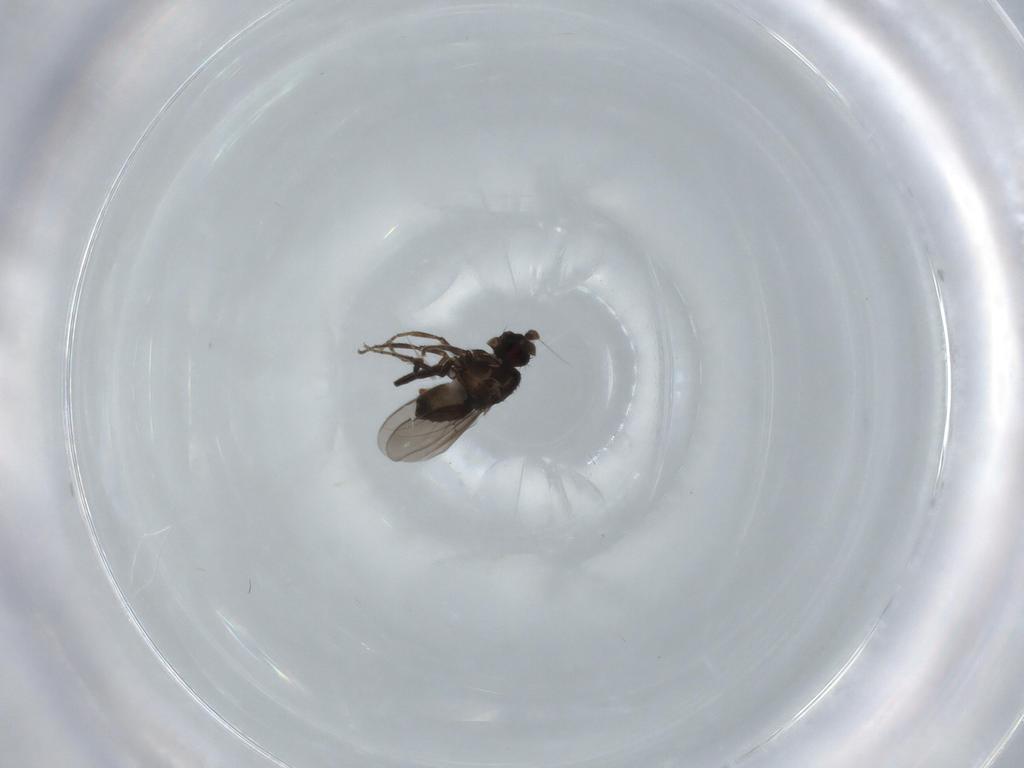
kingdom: Animalia
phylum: Arthropoda
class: Insecta
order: Diptera
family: Sphaeroceridae
